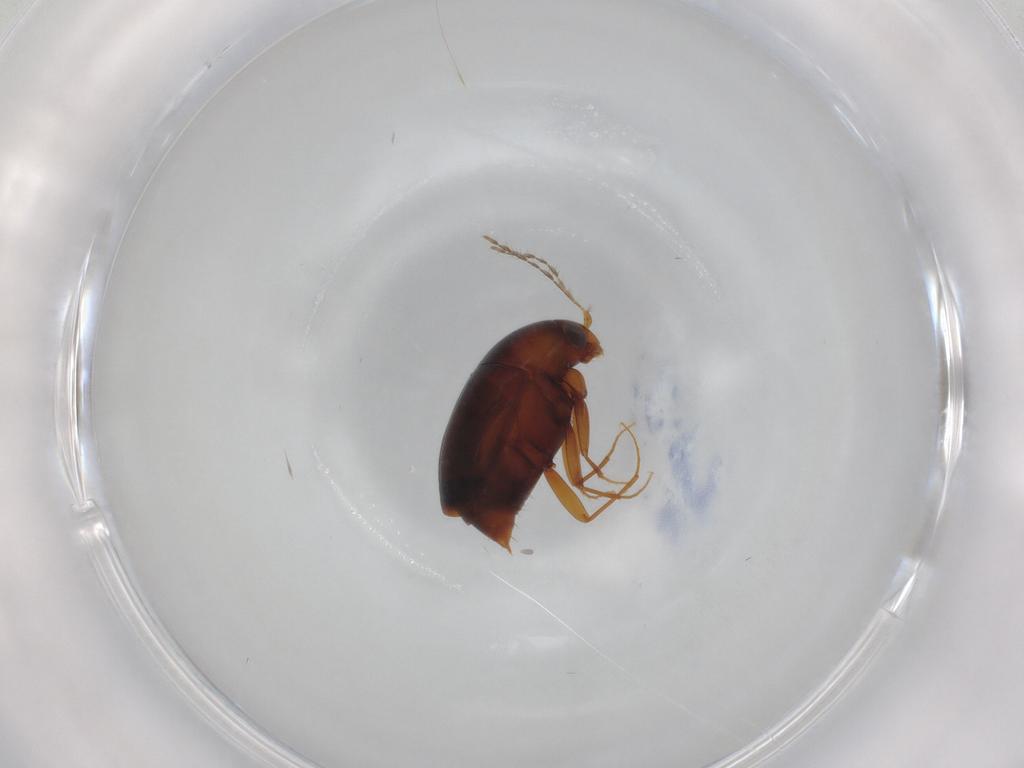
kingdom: Animalia
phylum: Arthropoda
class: Insecta
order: Coleoptera
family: Staphylinidae
